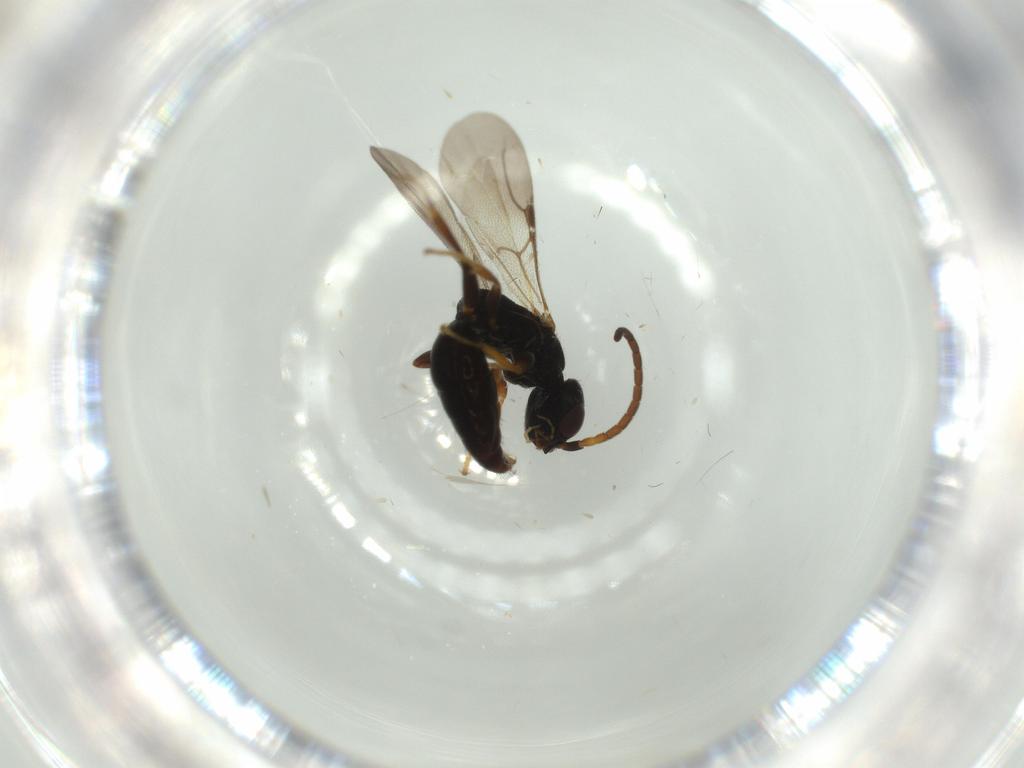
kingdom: Animalia
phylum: Arthropoda
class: Insecta
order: Hymenoptera
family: Bethylidae
